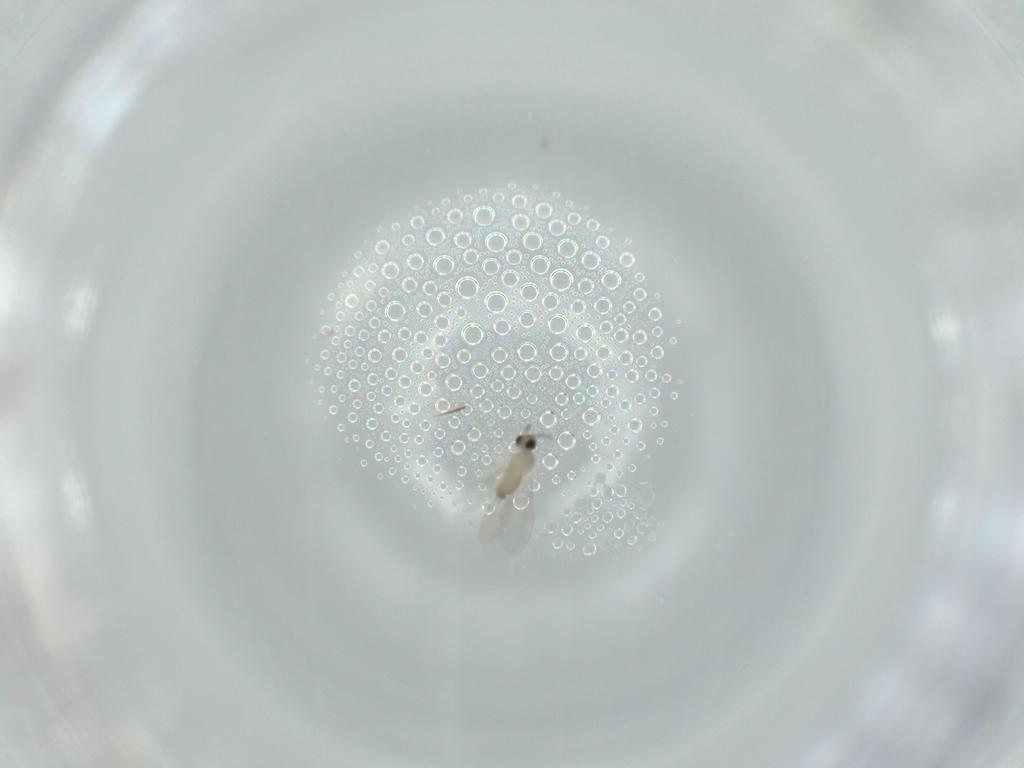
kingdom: Animalia
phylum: Arthropoda
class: Insecta
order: Diptera
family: Cecidomyiidae
